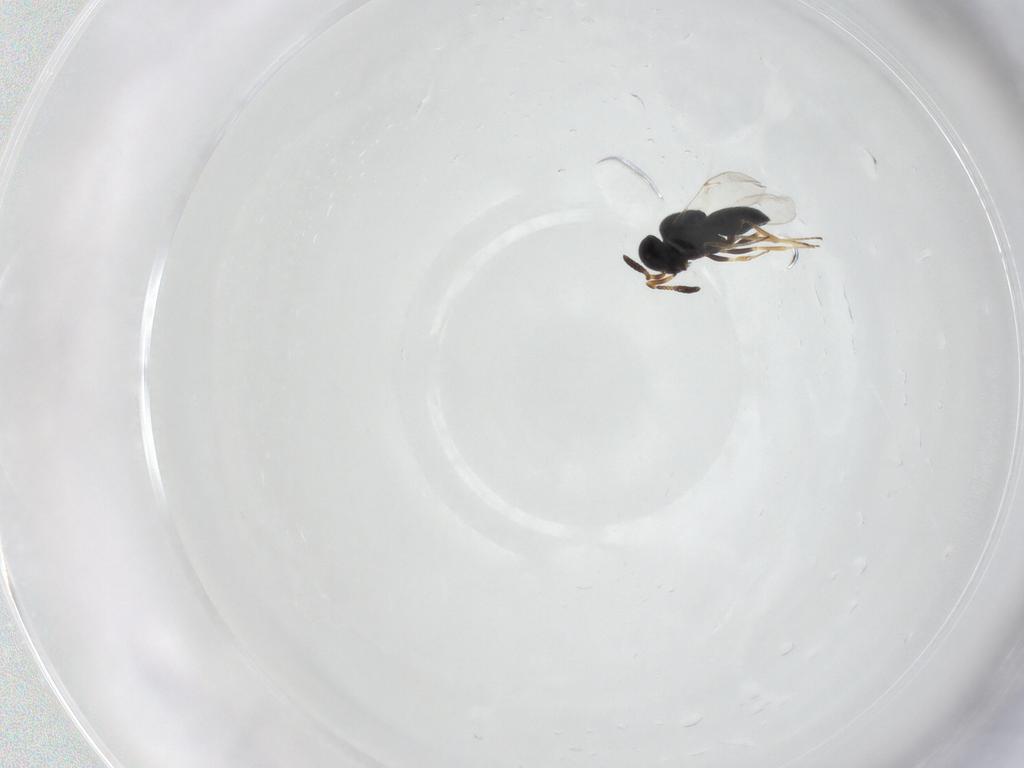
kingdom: Animalia
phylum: Arthropoda
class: Insecta
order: Hymenoptera
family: Scelionidae
